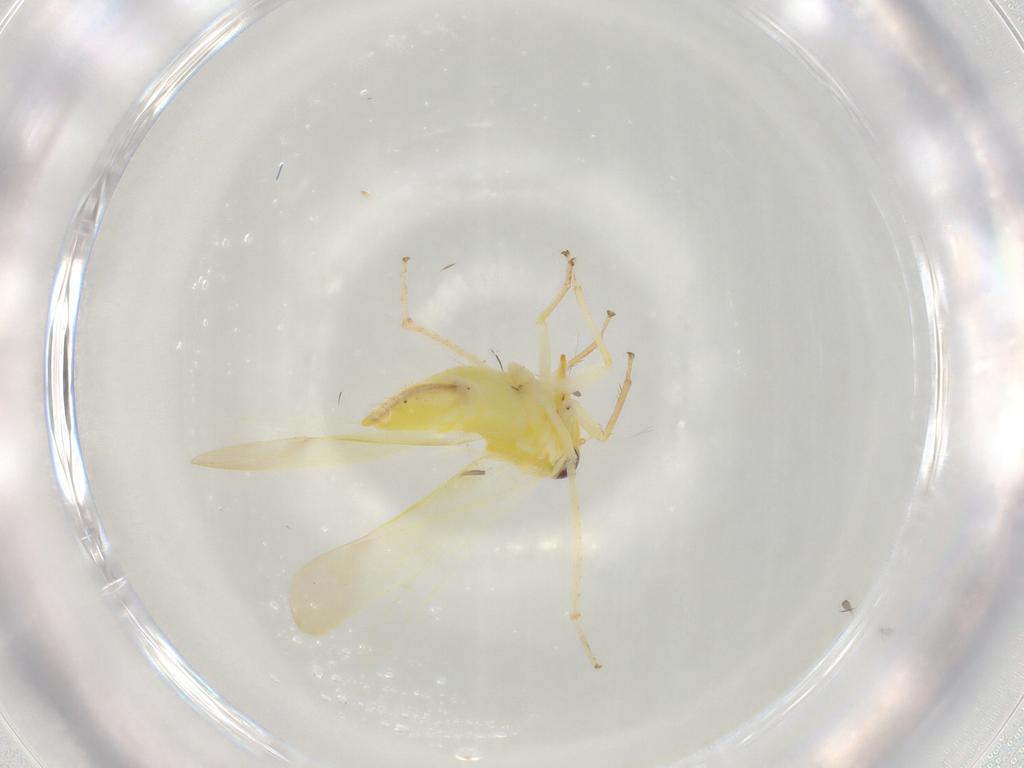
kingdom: Animalia
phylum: Arthropoda
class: Insecta
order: Hemiptera
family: Cicadellidae
